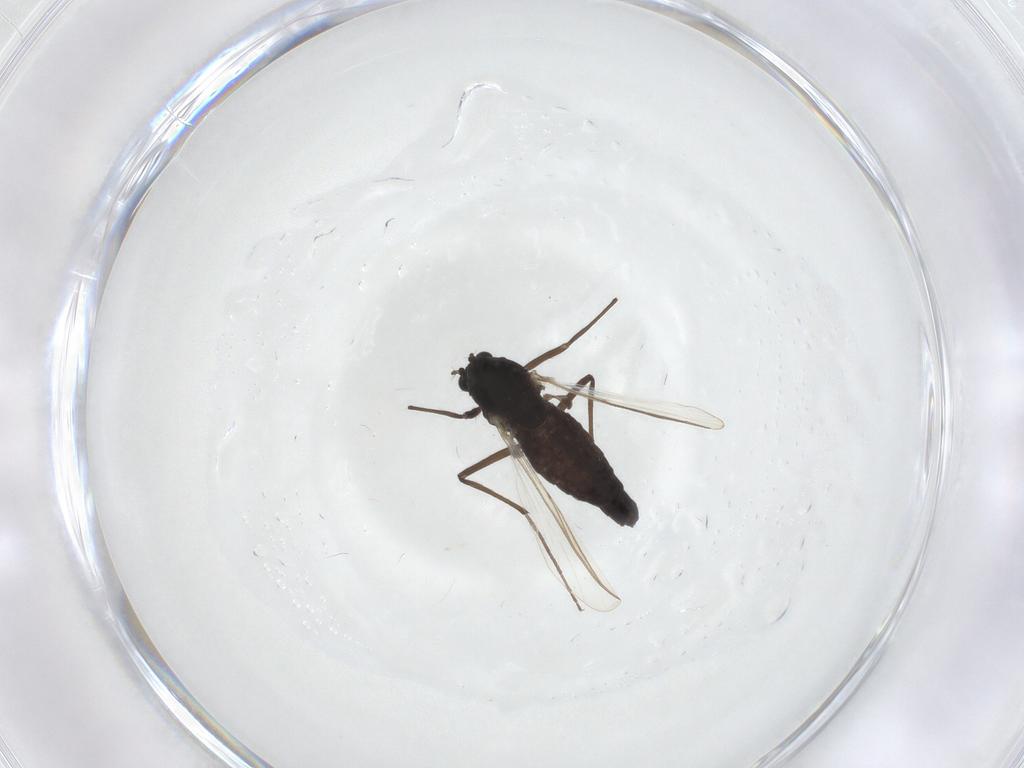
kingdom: Animalia
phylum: Arthropoda
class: Insecta
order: Diptera
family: Chironomidae
